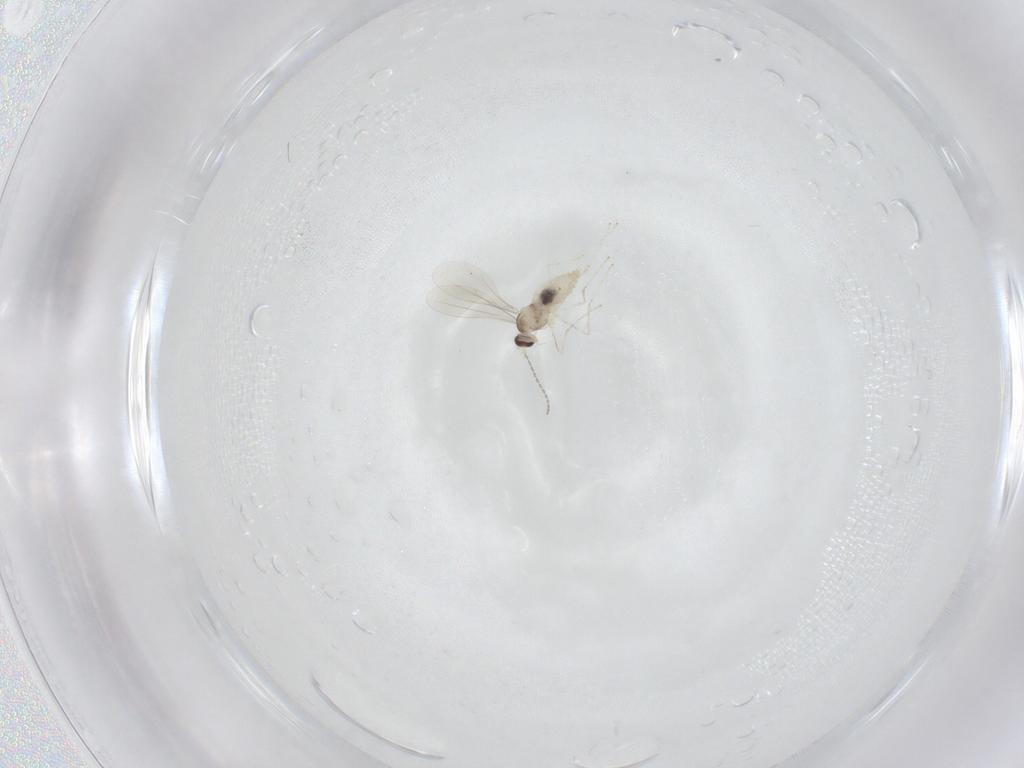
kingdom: Animalia
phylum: Arthropoda
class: Insecta
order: Diptera
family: Cecidomyiidae
